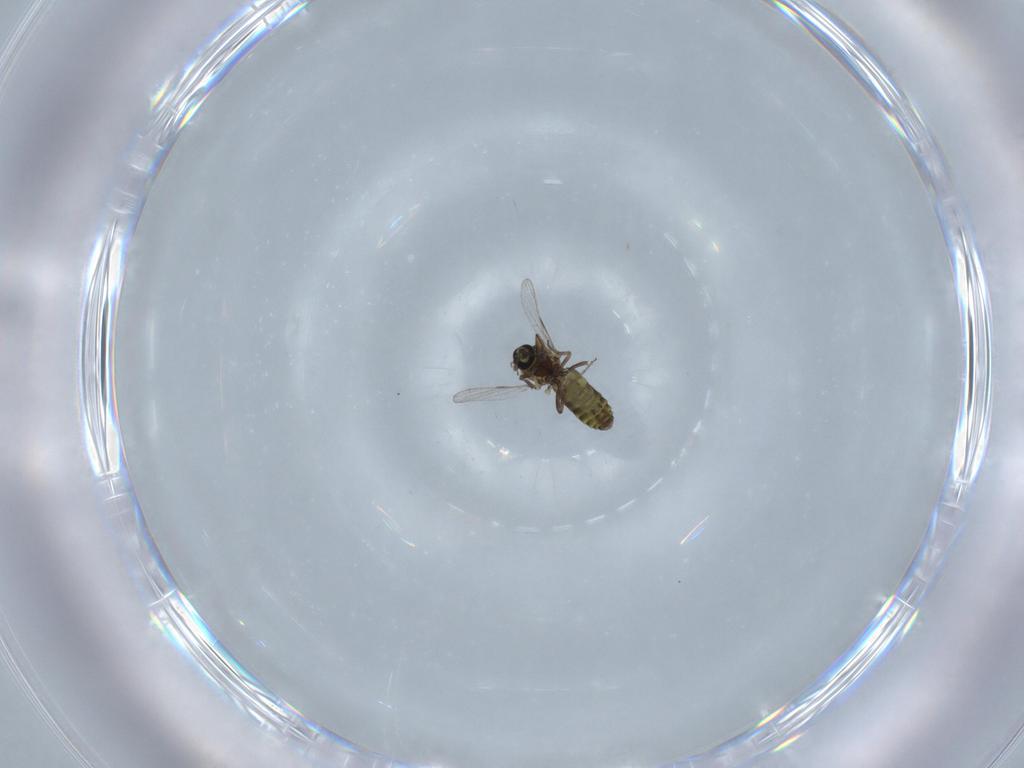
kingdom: Animalia
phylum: Arthropoda
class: Insecta
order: Diptera
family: Ceratopogonidae
